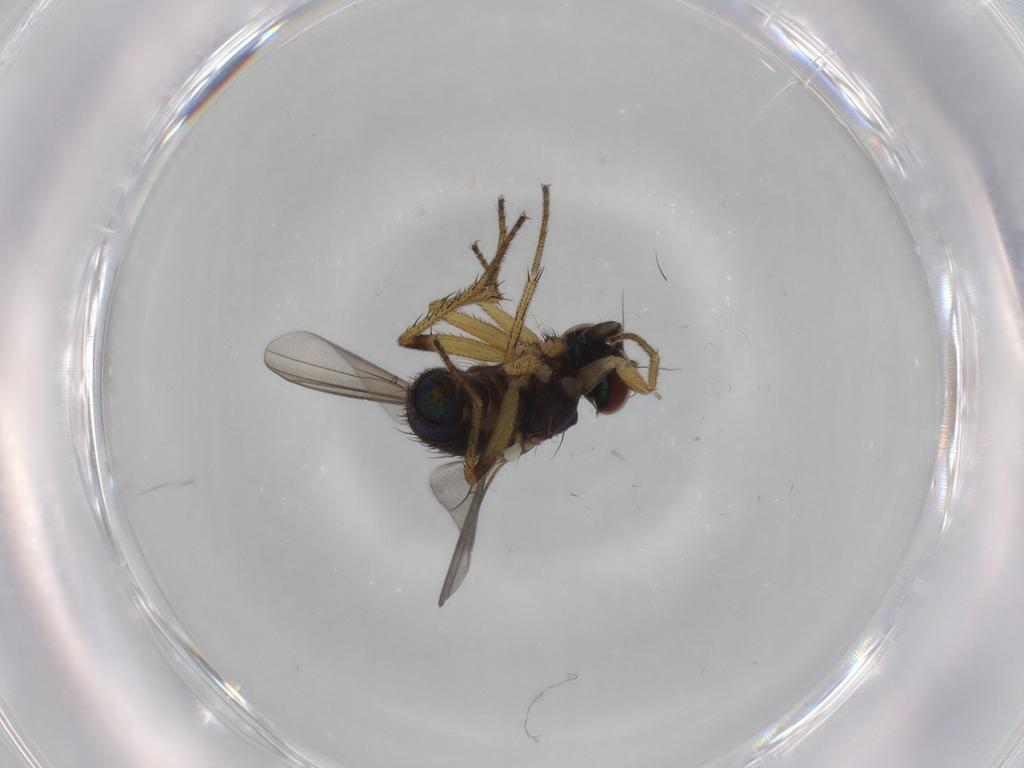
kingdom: Animalia
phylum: Arthropoda
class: Insecta
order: Diptera
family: Dolichopodidae
